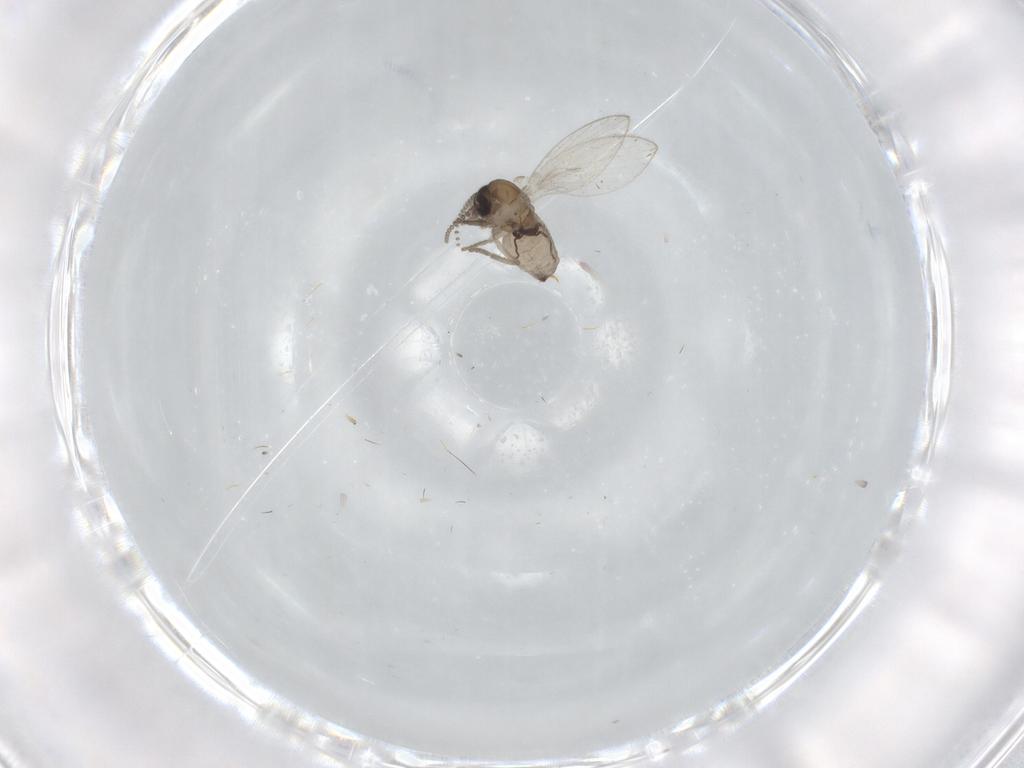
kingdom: Animalia
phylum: Arthropoda
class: Insecta
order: Diptera
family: Psychodidae
